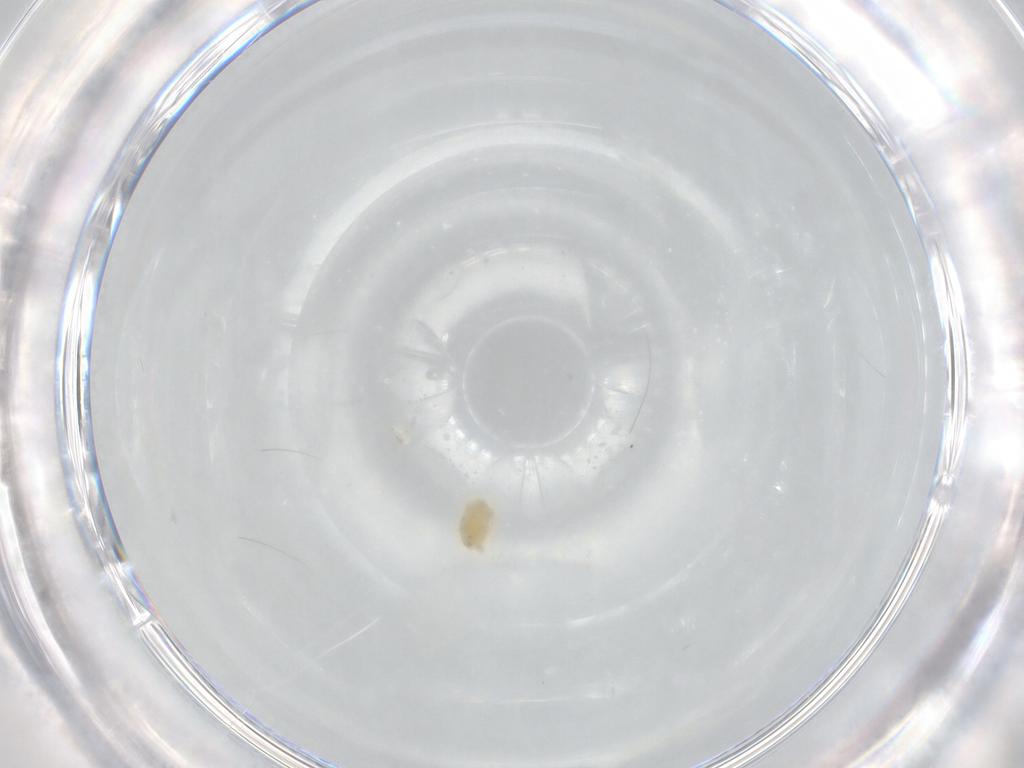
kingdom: Animalia
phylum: Arthropoda
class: Arachnida
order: Trombidiformes
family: Eupodidae
